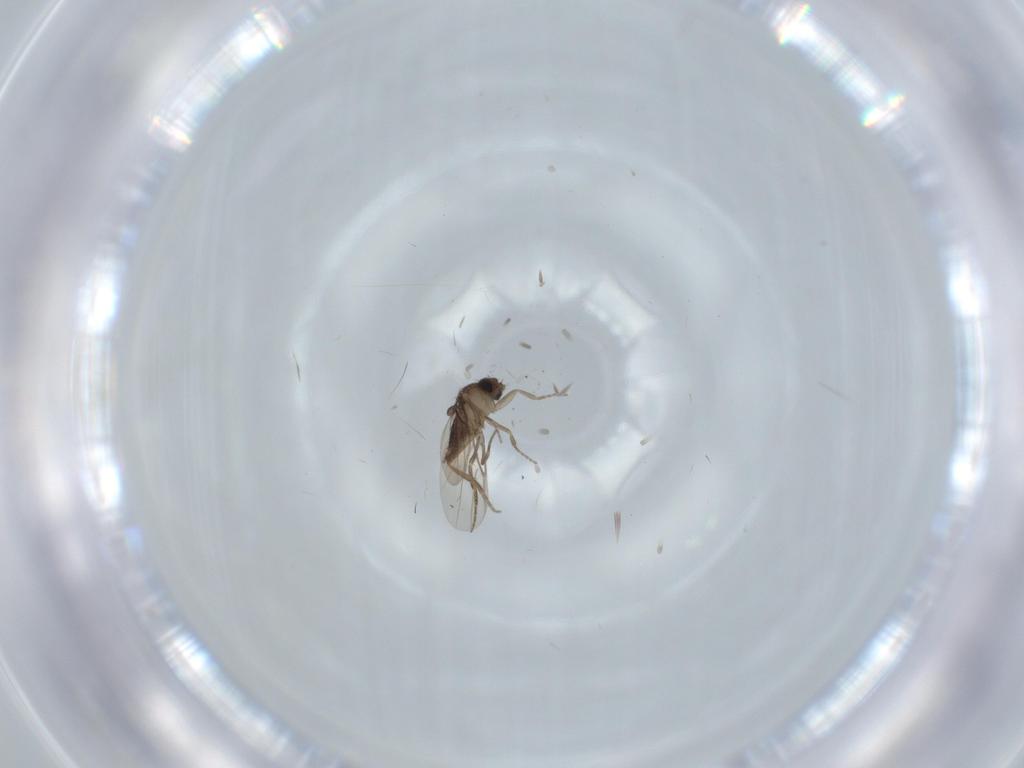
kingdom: Animalia
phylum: Arthropoda
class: Insecta
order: Diptera
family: Phoridae
